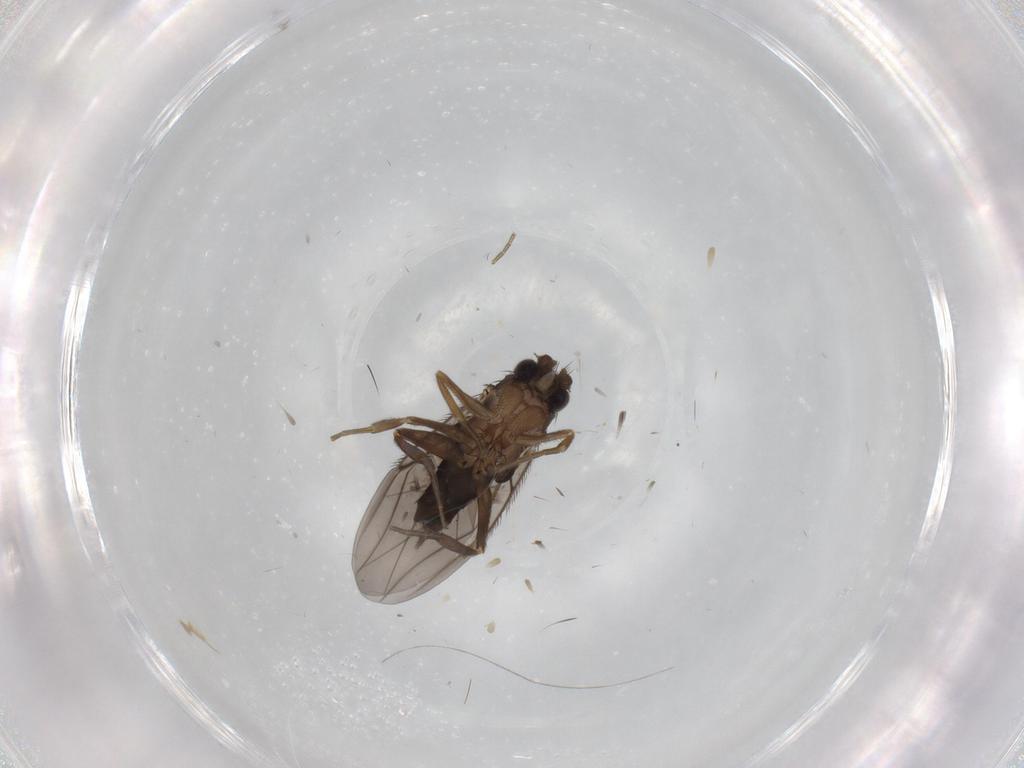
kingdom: Animalia
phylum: Arthropoda
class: Insecta
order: Diptera
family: Phoridae
